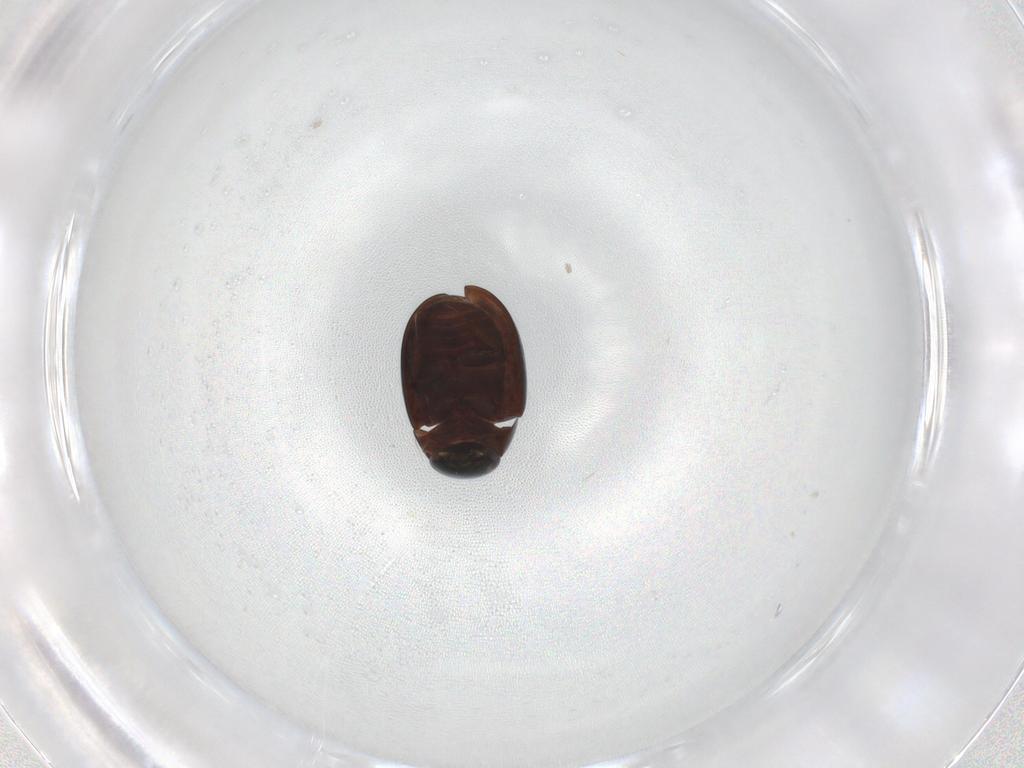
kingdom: Animalia
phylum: Arthropoda
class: Insecta
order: Coleoptera
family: Hydrophilidae
